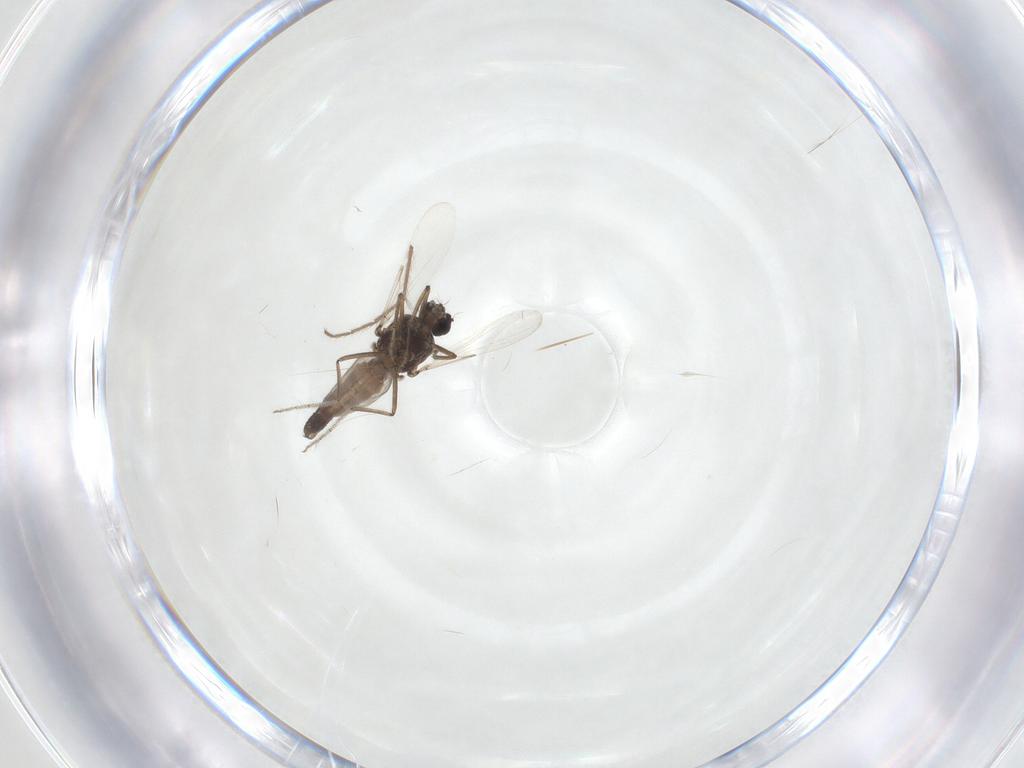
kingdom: Animalia
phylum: Arthropoda
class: Insecta
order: Diptera
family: Ceratopogonidae
